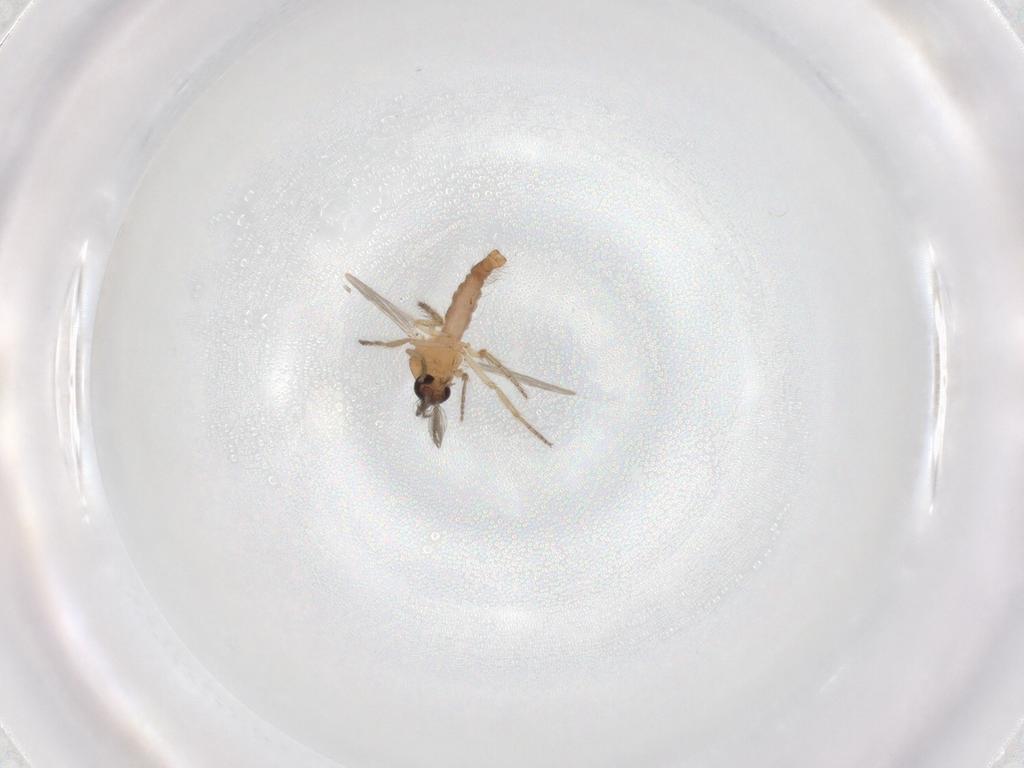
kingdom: Animalia
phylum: Arthropoda
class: Insecta
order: Diptera
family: Ceratopogonidae
